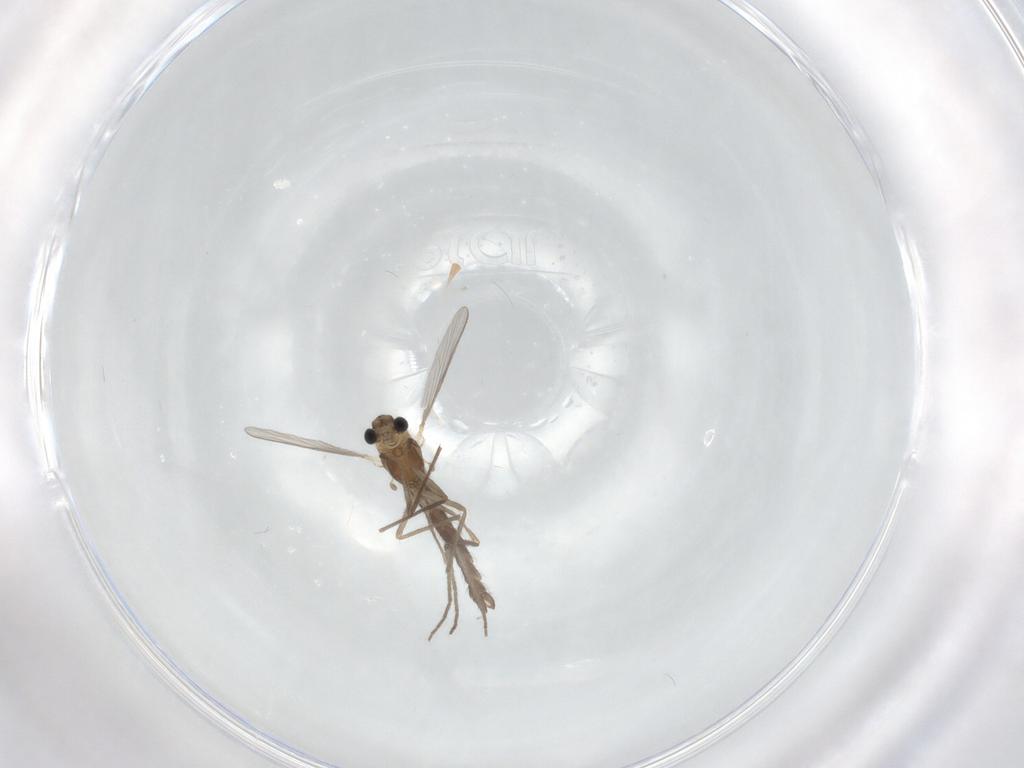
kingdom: Animalia
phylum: Arthropoda
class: Insecta
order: Diptera
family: Chironomidae
